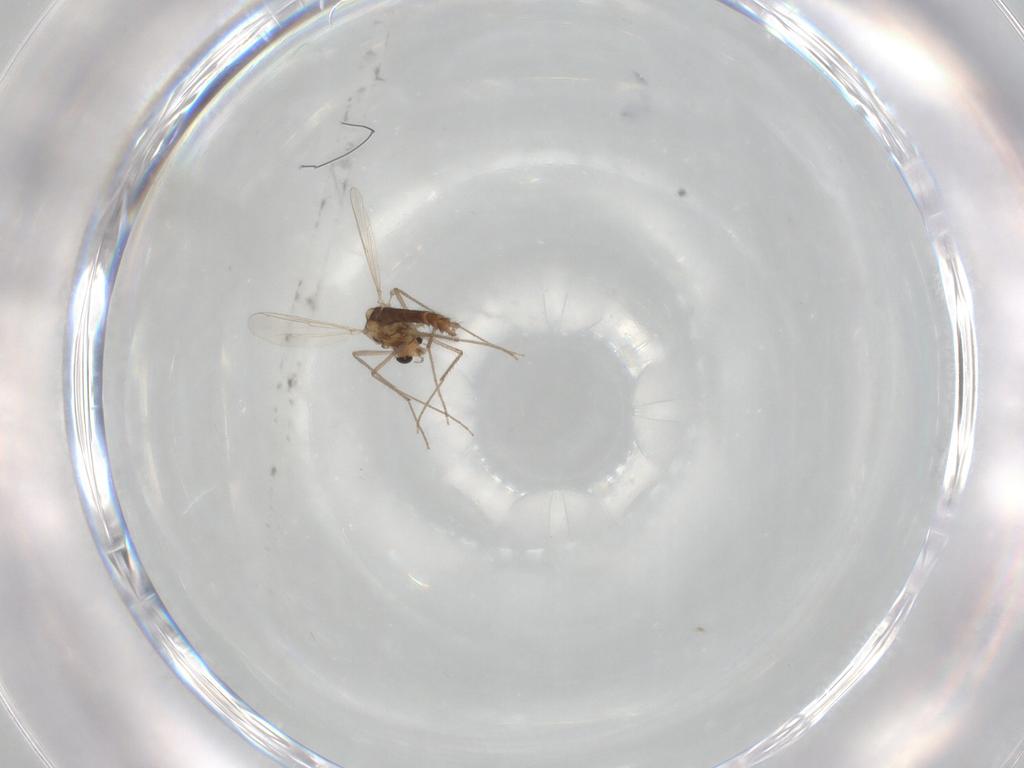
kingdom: Animalia
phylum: Arthropoda
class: Insecta
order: Diptera
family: Chironomidae
